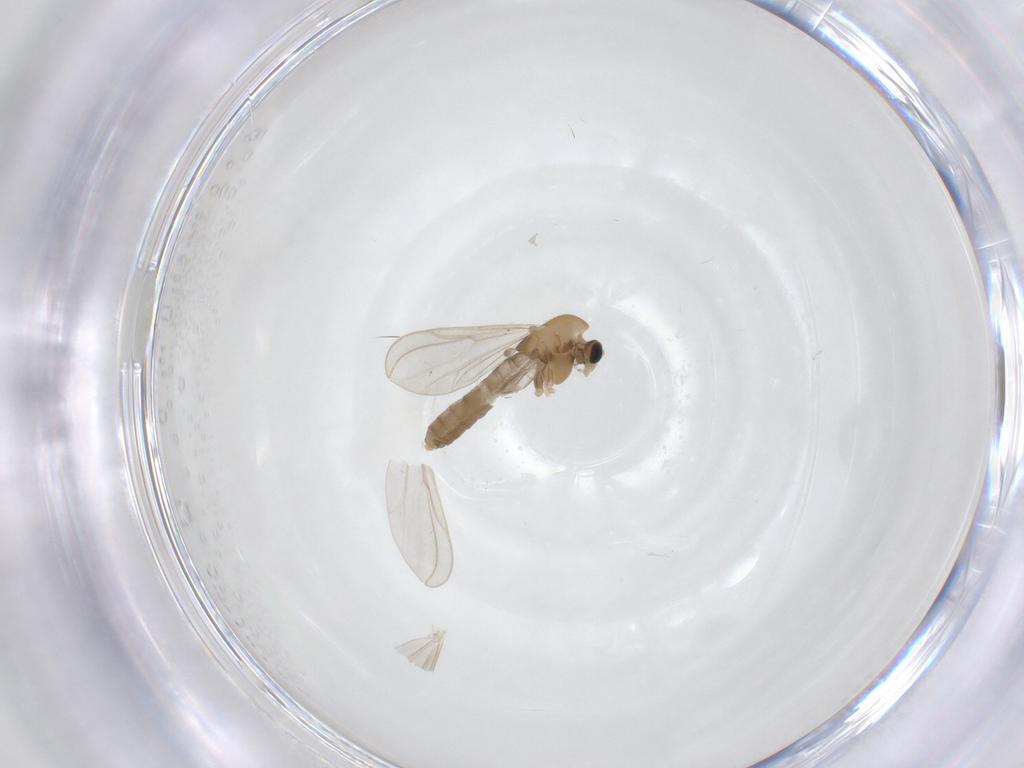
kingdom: Animalia
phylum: Arthropoda
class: Insecta
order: Diptera
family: Chironomidae
